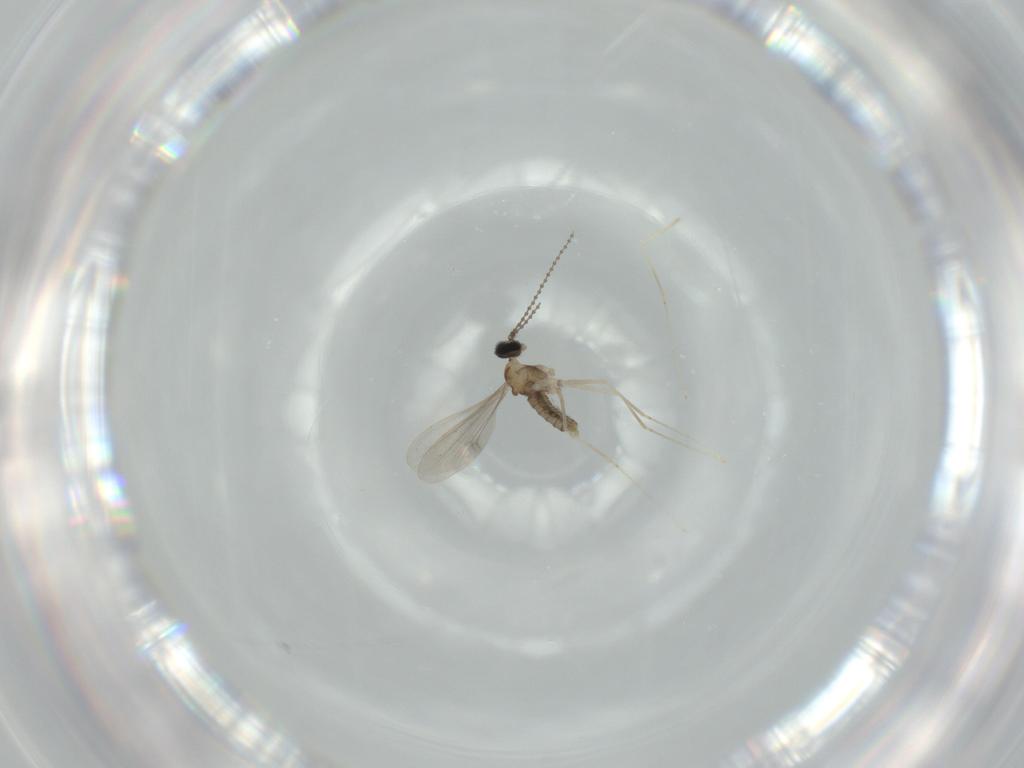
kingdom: Animalia
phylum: Arthropoda
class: Insecta
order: Diptera
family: Cecidomyiidae
